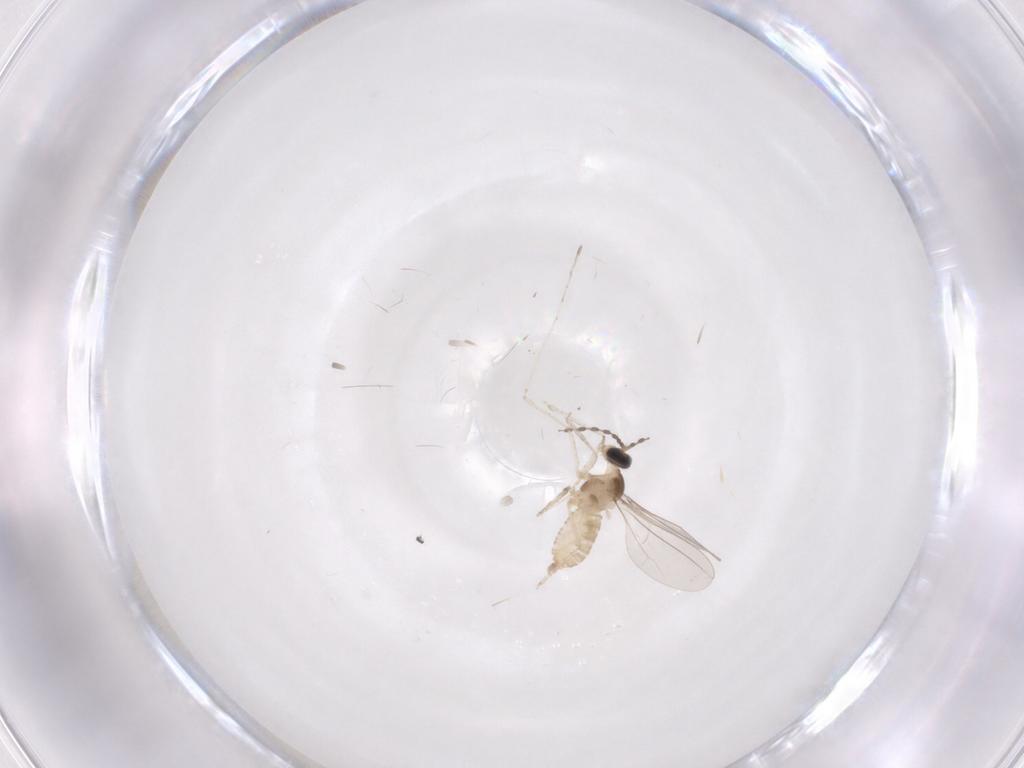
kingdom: Animalia
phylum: Arthropoda
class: Insecta
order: Diptera
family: Cecidomyiidae
